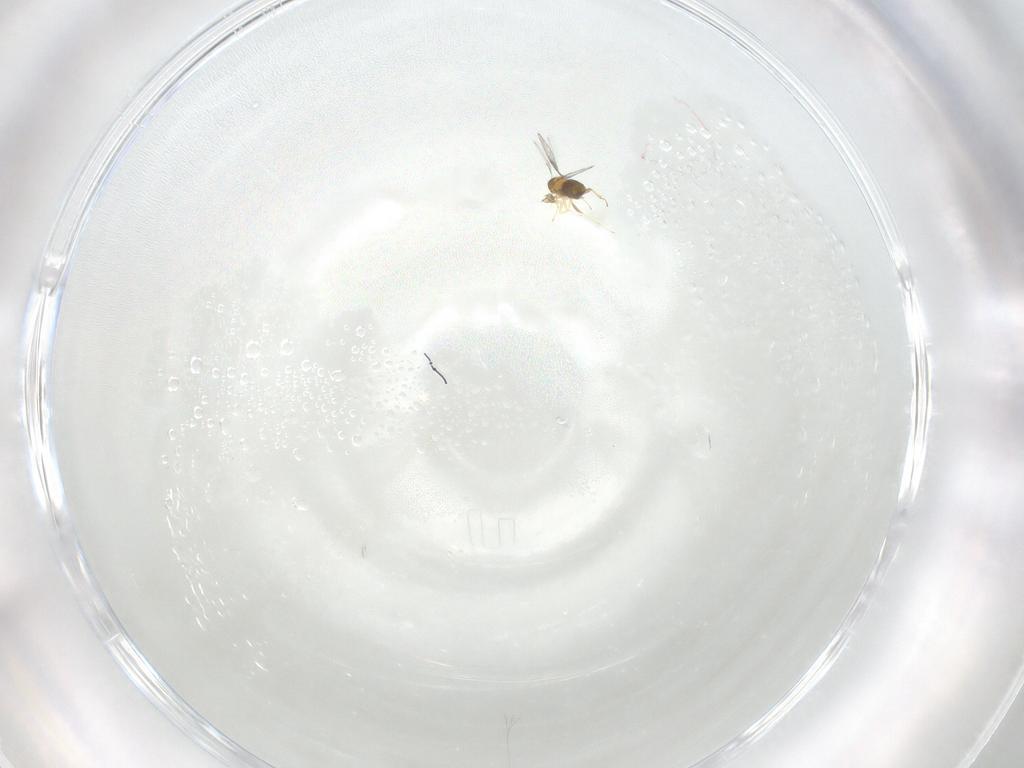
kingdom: Animalia
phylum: Arthropoda
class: Insecta
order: Hymenoptera
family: Trichogrammatidae
